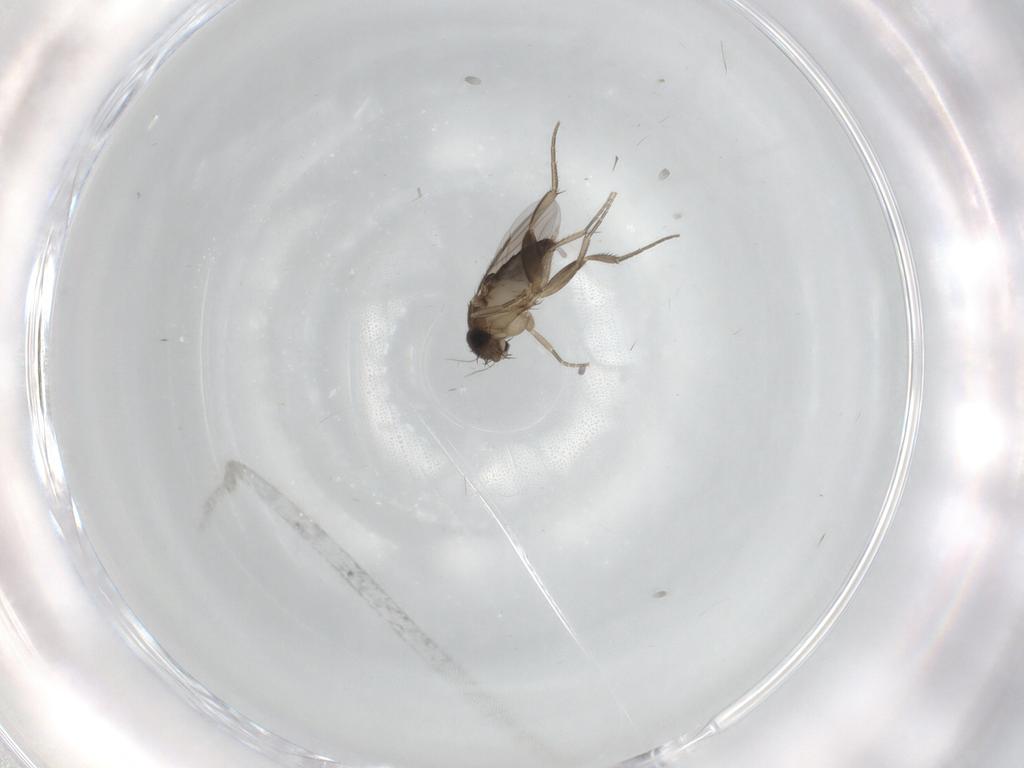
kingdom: Animalia
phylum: Arthropoda
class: Insecta
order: Diptera
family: Phoridae
